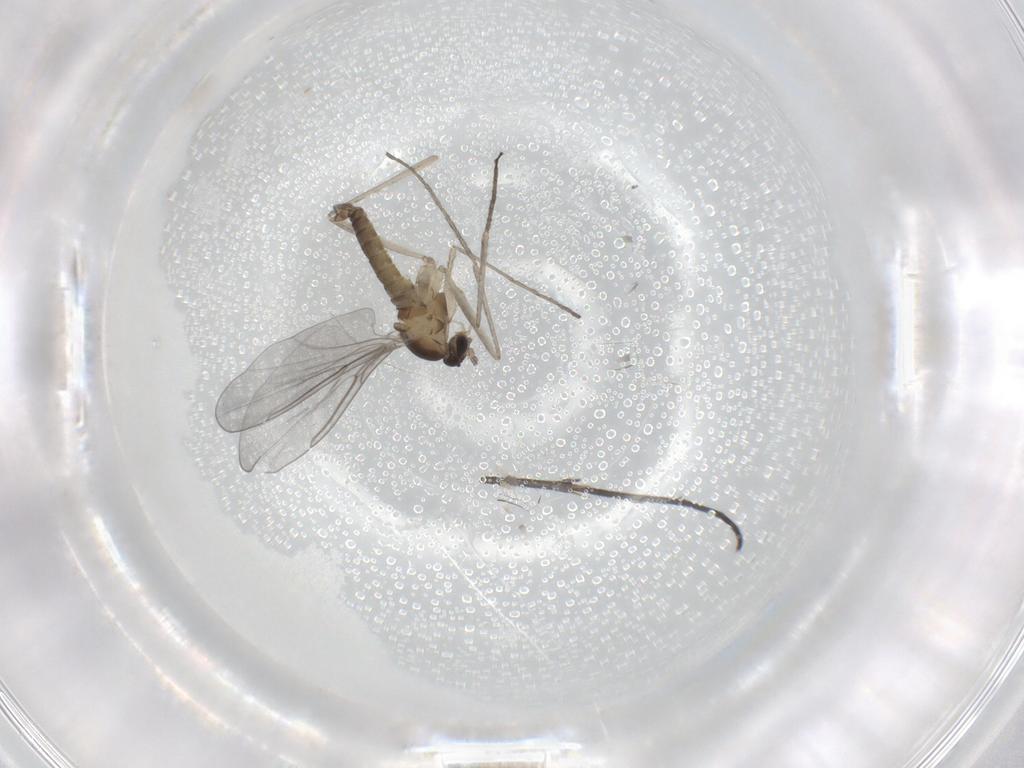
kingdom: Animalia
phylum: Arthropoda
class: Insecta
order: Diptera
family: Cecidomyiidae
